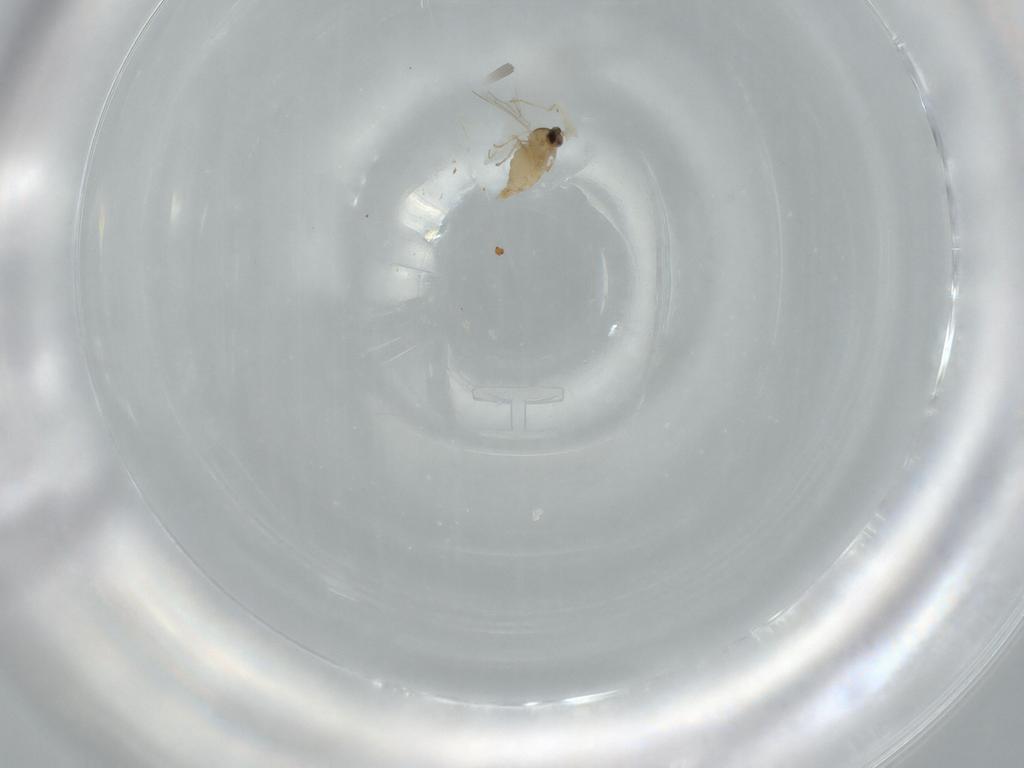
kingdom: Animalia
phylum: Arthropoda
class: Insecta
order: Diptera
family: Cecidomyiidae
